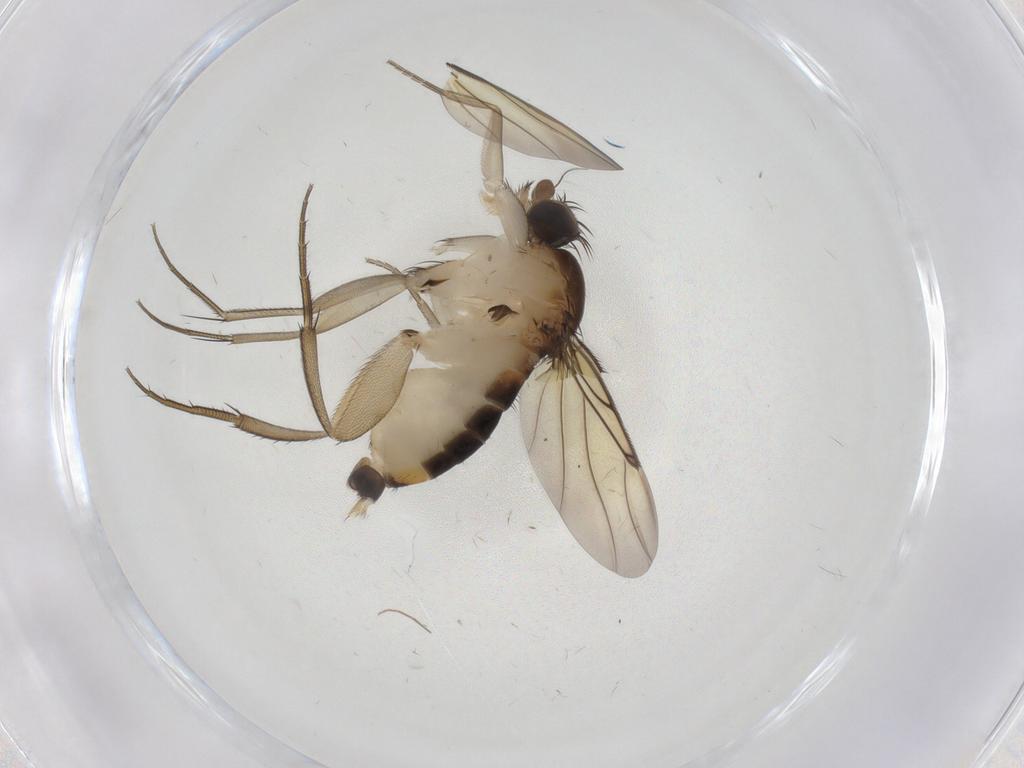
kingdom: Animalia
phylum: Arthropoda
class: Insecta
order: Diptera
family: Phoridae
